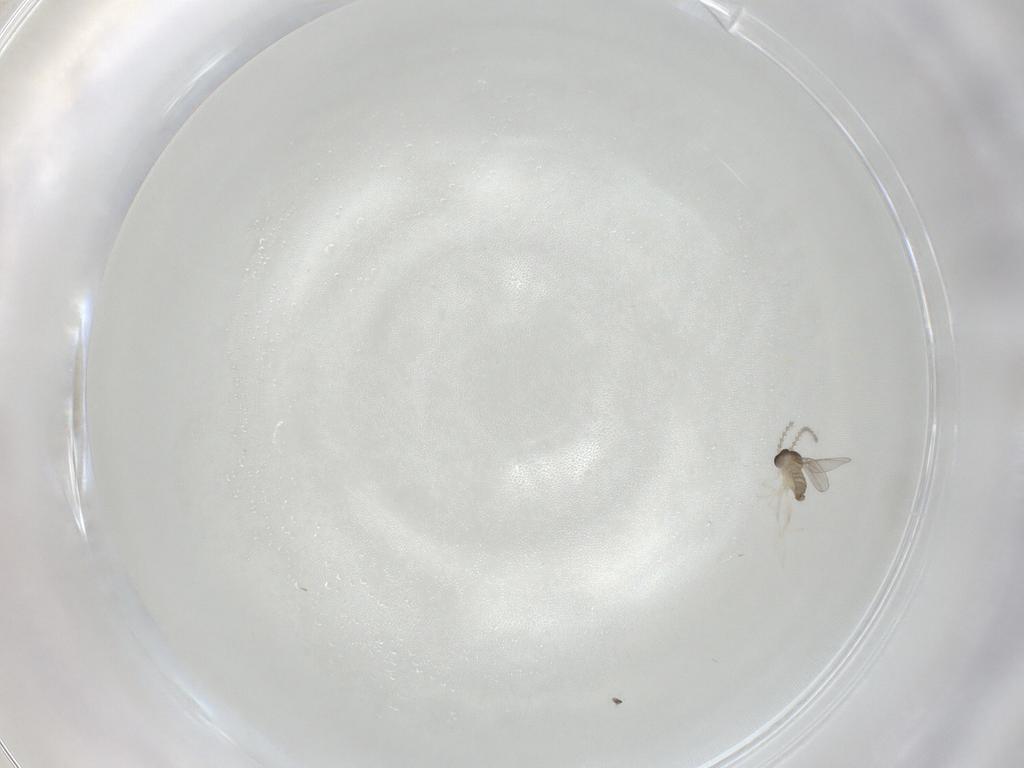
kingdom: Animalia
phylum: Arthropoda
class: Insecta
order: Diptera
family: Cecidomyiidae
